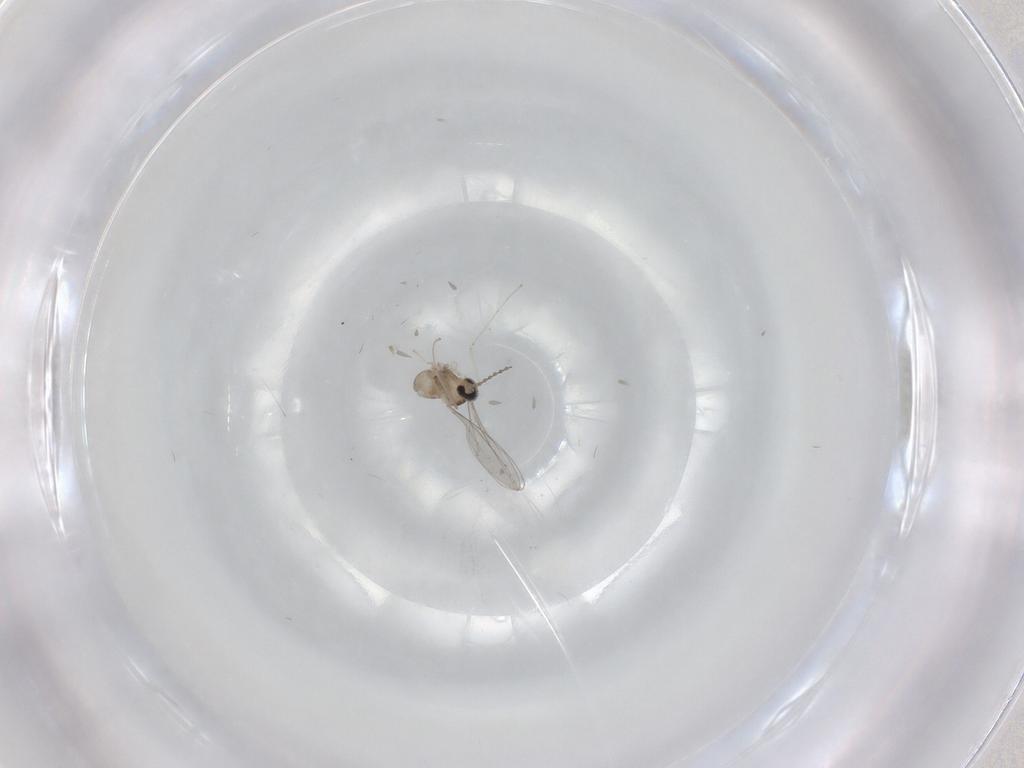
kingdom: Animalia
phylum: Arthropoda
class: Insecta
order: Diptera
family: Cecidomyiidae
